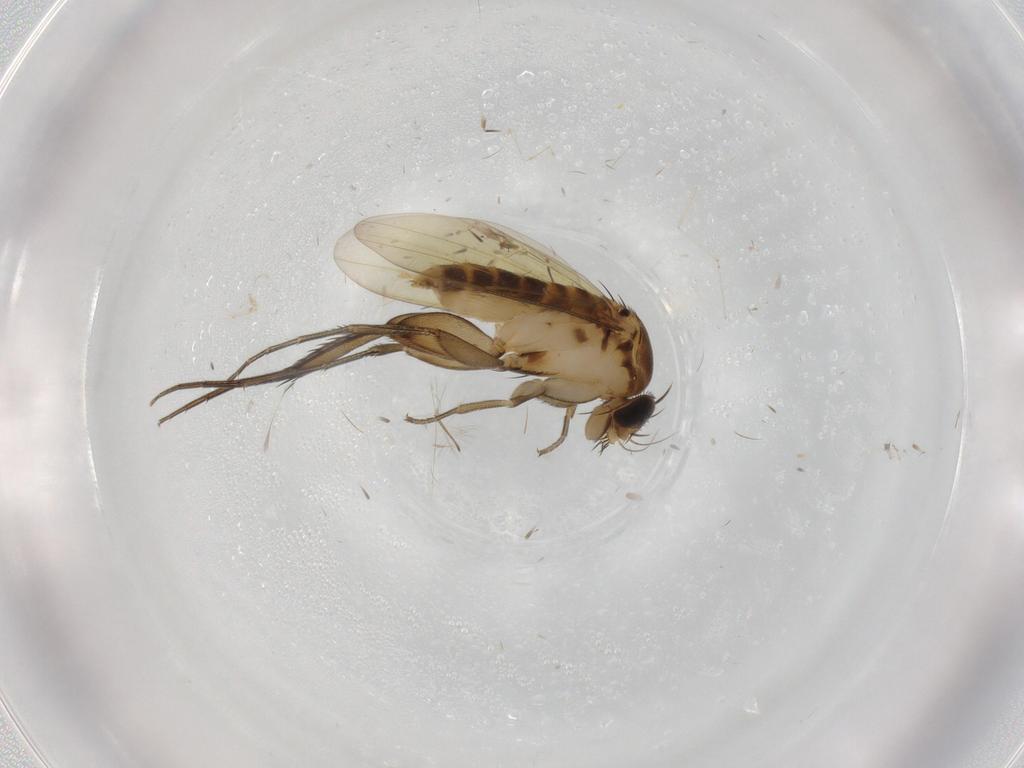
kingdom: Animalia
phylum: Arthropoda
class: Insecta
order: Diptera
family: Phoridae
